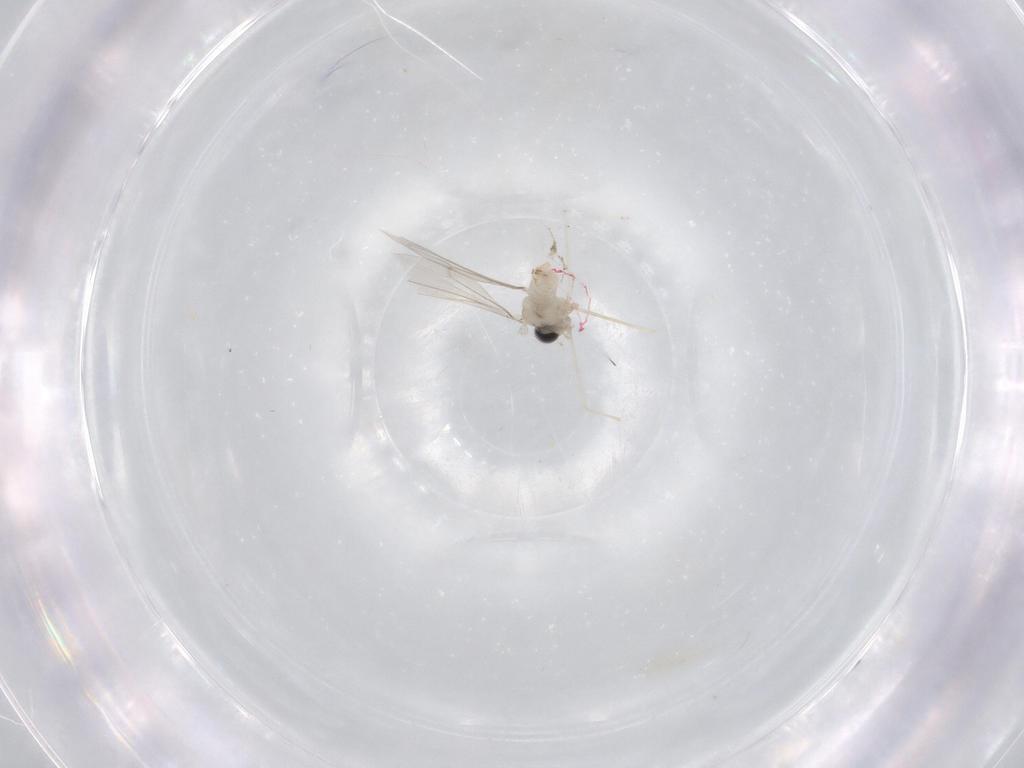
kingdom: Animalia
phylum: Arthropoda
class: Insecta
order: Diptera
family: Cecidomyiidae
